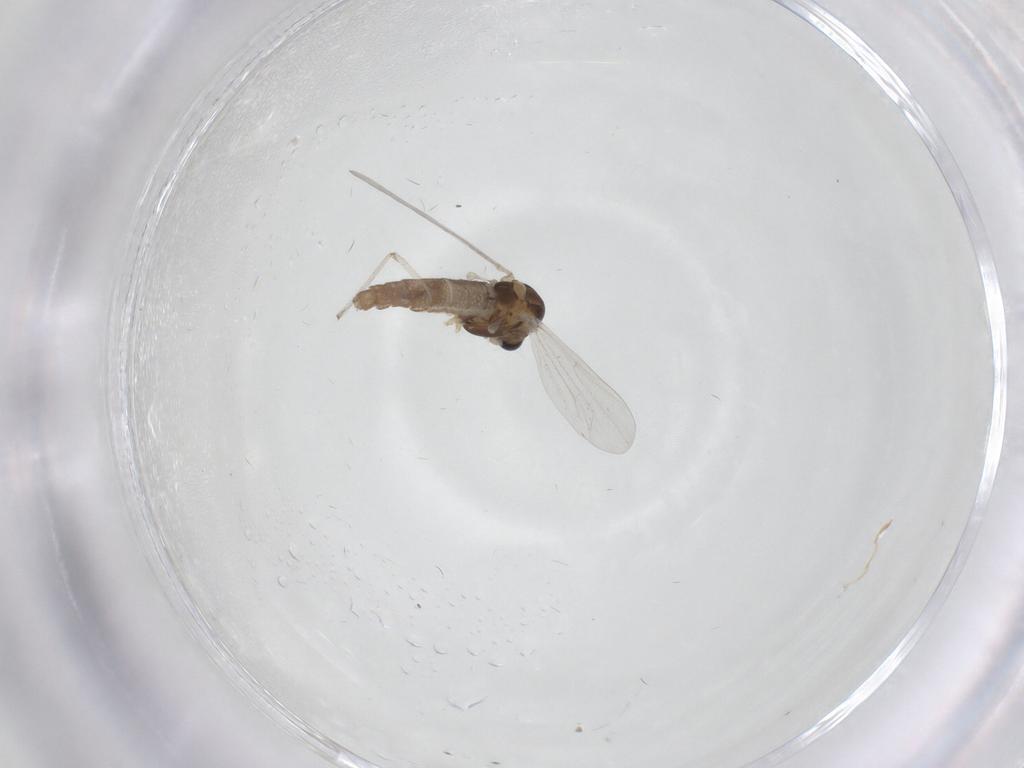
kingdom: Animalia
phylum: Arthropoda
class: Insecta
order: Diptera
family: Chironomidae
